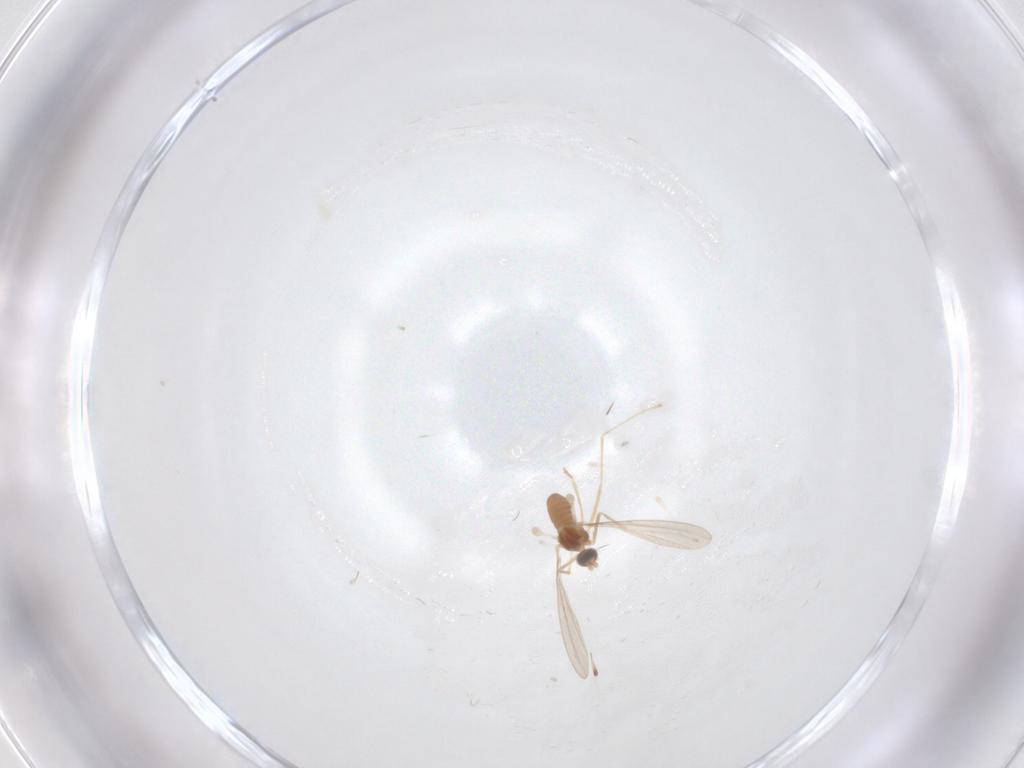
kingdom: Animalia
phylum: Arthropoda
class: Insecta
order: Diptera
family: Cecidomyiidae
